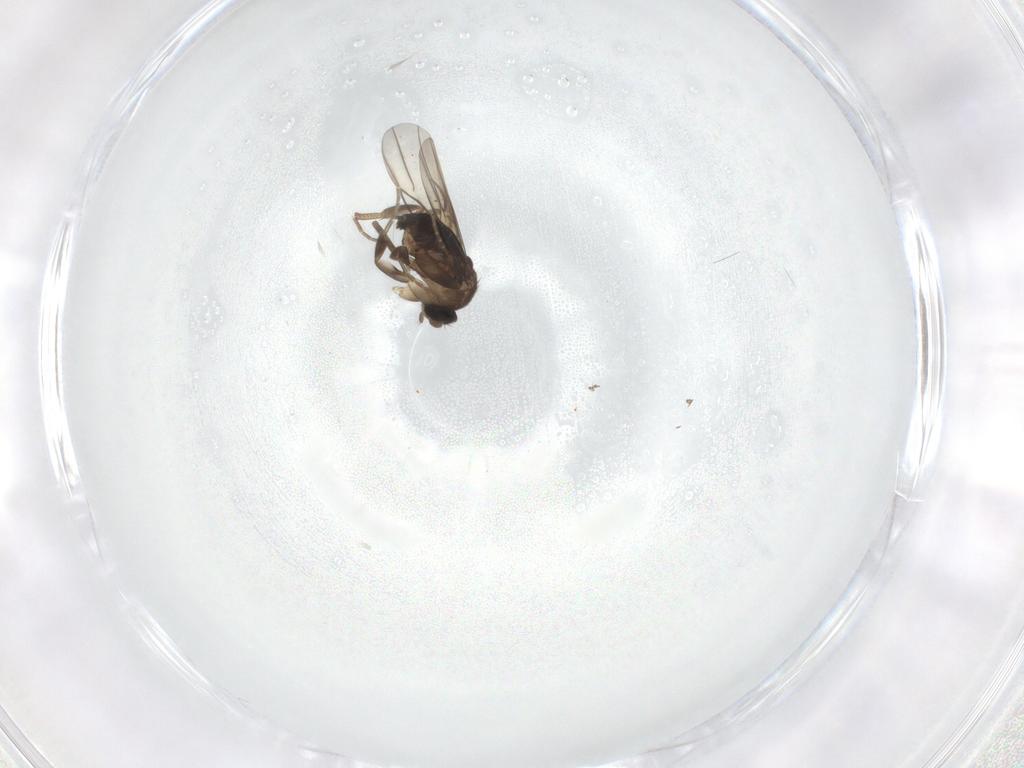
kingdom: Animalia
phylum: Arthropoda
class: Insecta
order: Diptera
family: Phoridae
